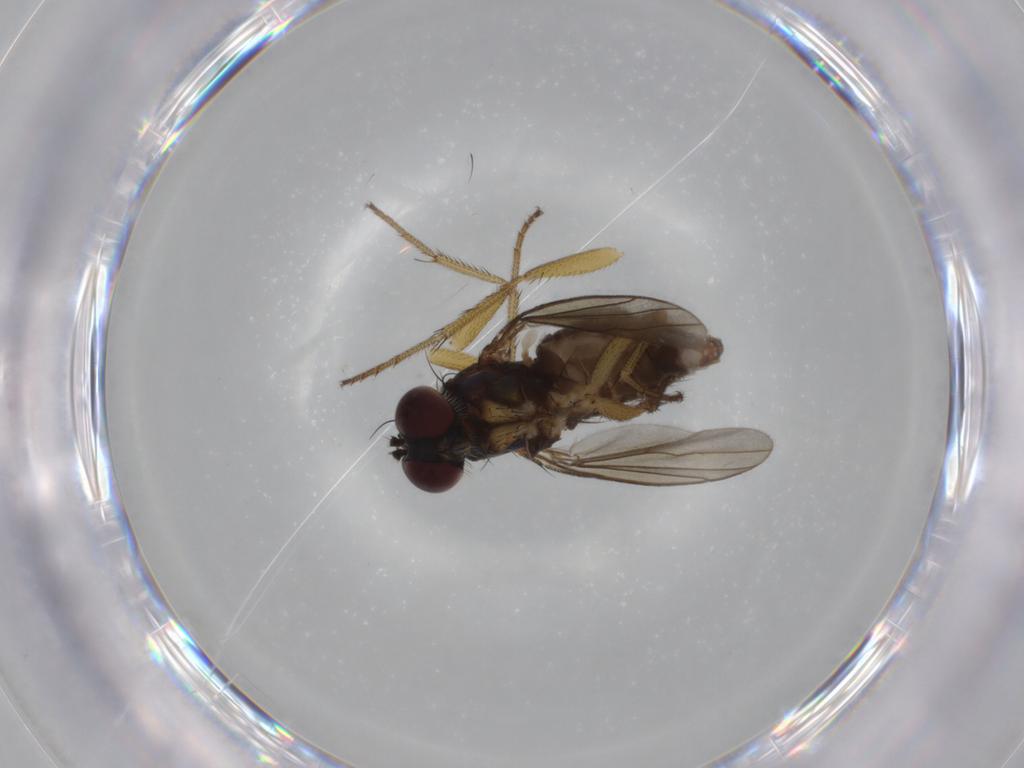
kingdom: Animalia
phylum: Arthropoda
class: Insecta
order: Diptera
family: Dolichopodidae
